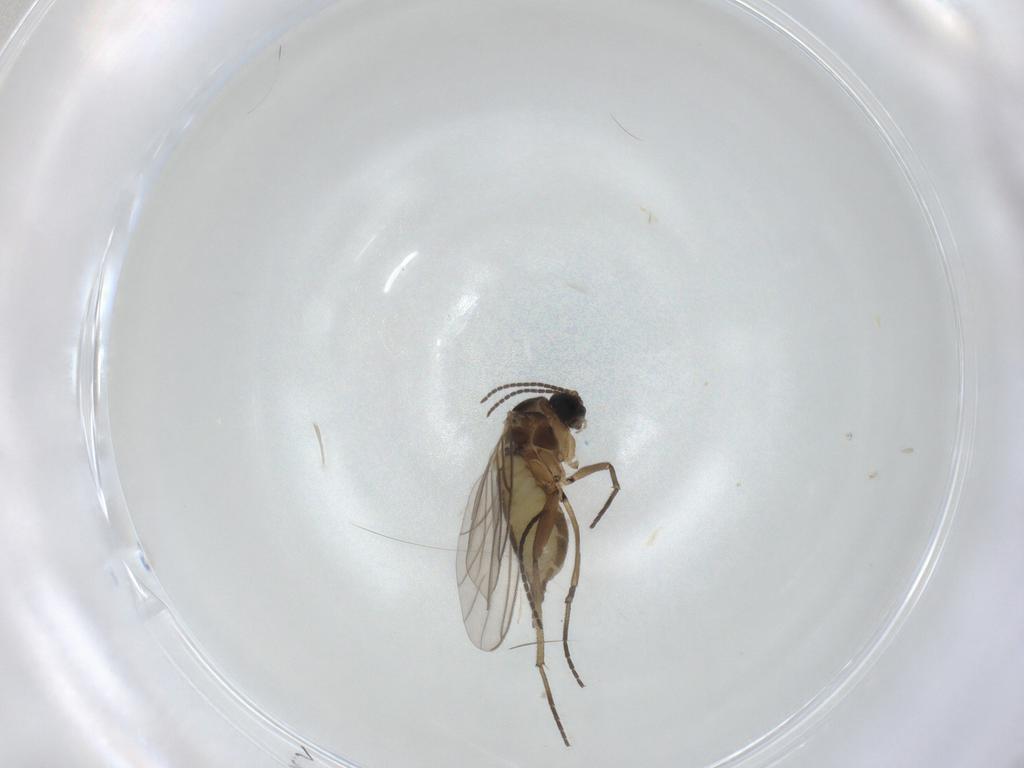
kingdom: Animalia
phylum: Arthropoda
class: Insecta
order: Diptera
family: Sciaridae
